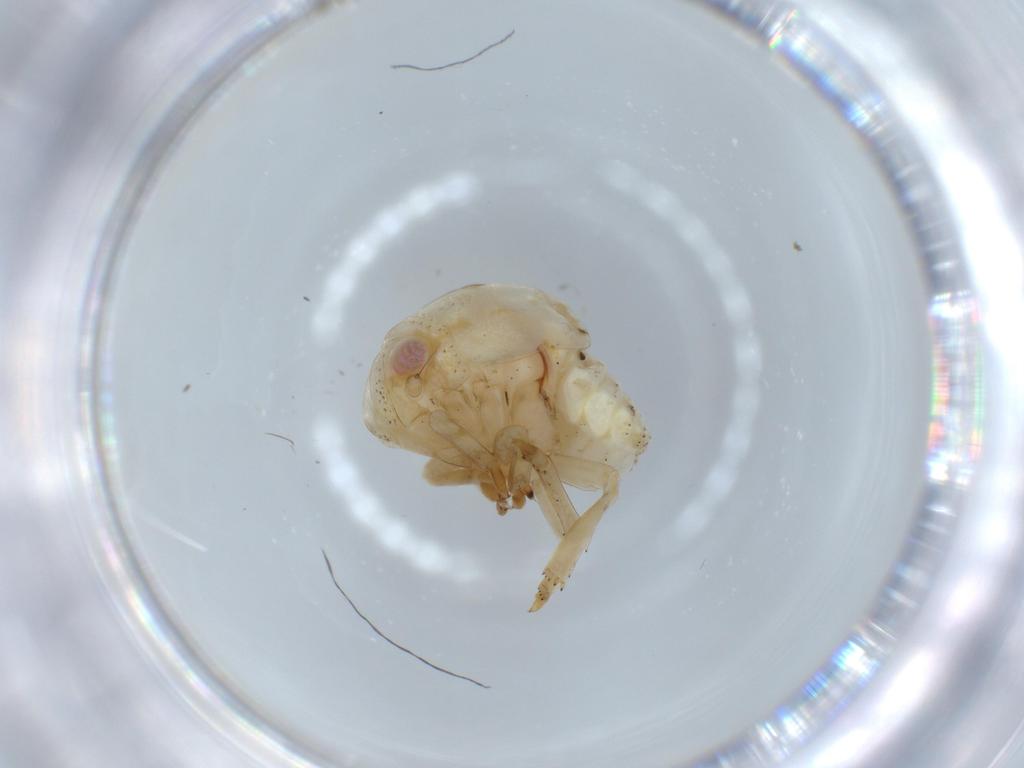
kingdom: Animalia
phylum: Arthropoda
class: Insecta
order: Hemiptera
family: Acanaloniidae
